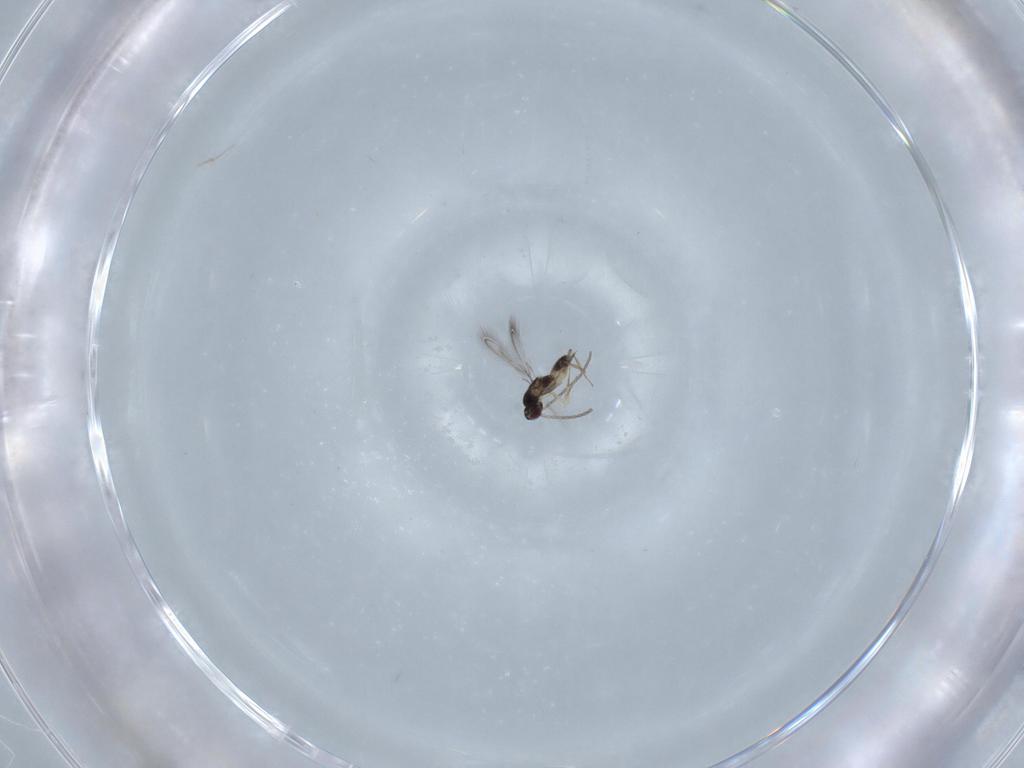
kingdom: Animalia
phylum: Arthropoda
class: Insecta
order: Hymenoptera
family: Mymaridae
